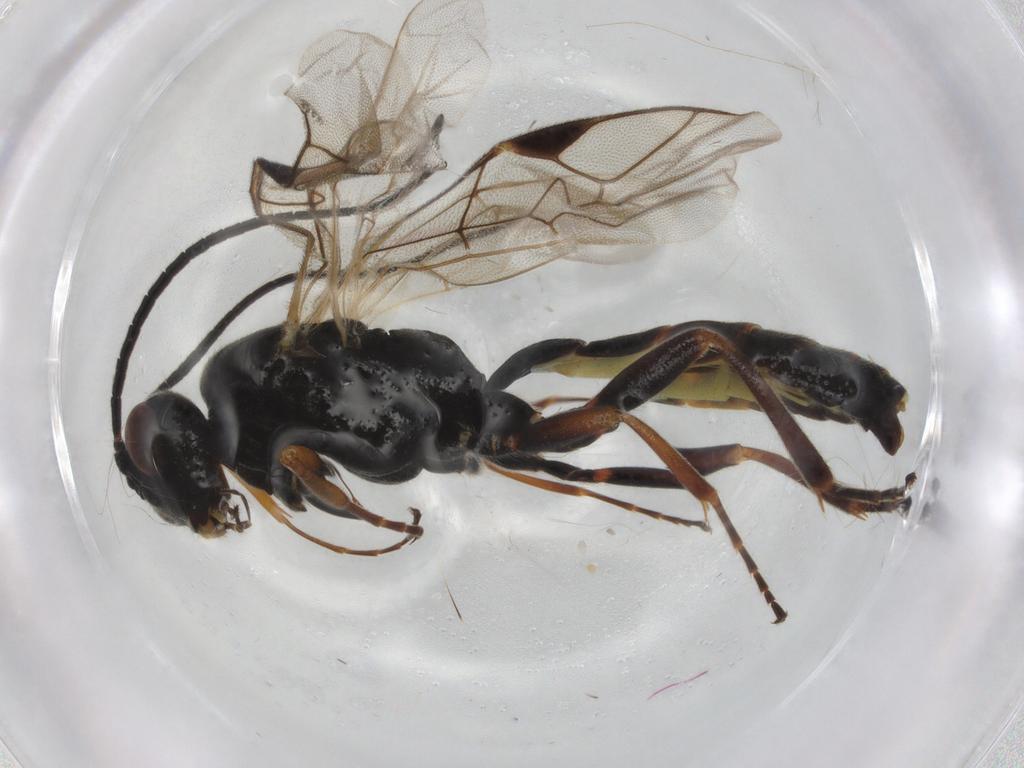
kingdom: Animalia
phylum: Arthropoda
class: Insecta
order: Hymenoptera
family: Ichneumonidae
